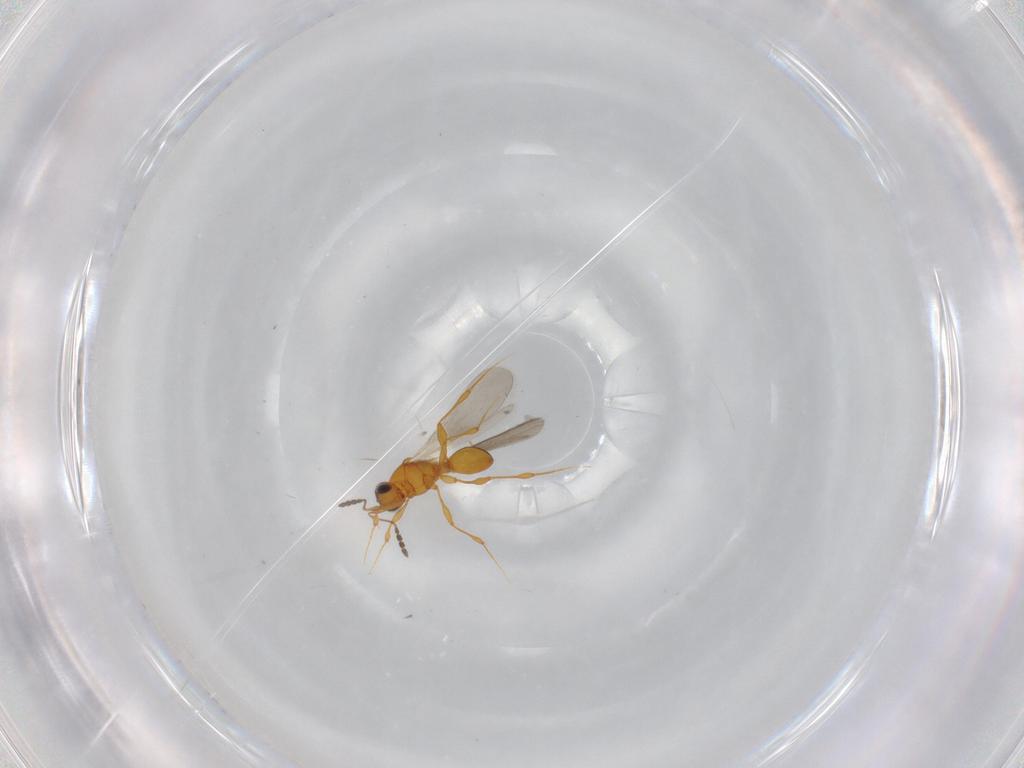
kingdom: Animalia
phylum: Arthropoda
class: Insecta
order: Hymenoptera
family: Platygastridae
